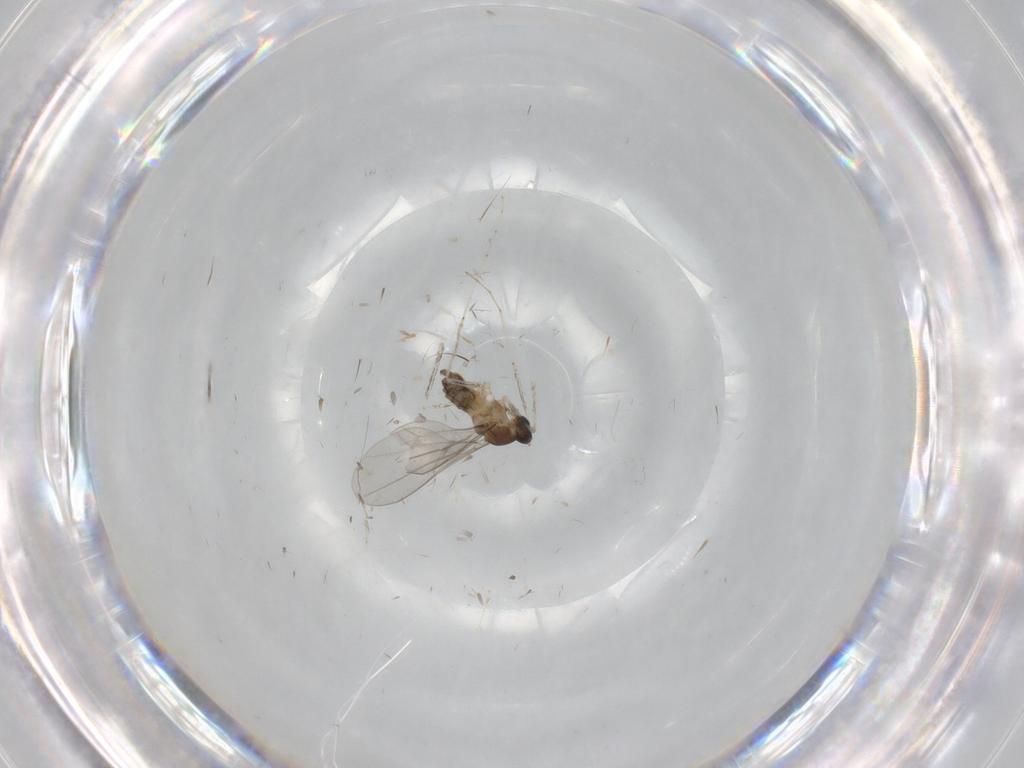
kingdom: Animalia
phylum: Arthropoda
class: Insecta
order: Diptera
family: Cecidomyiidae
